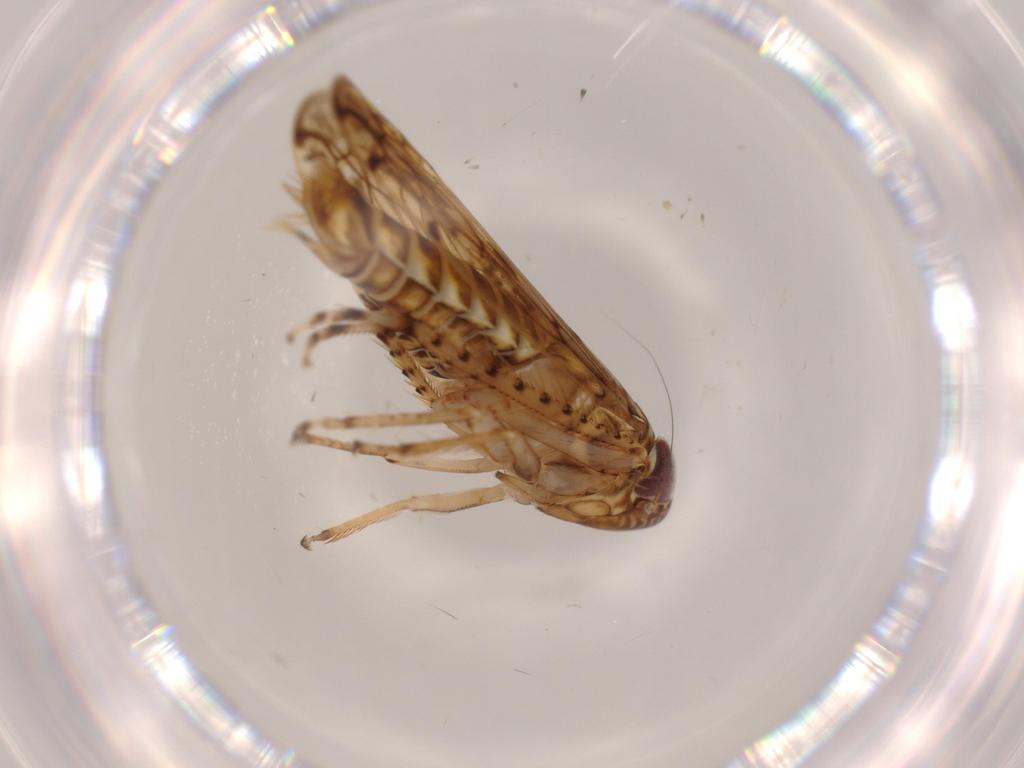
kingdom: Animalia
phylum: Arthropoda
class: Insecta
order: Hemiptera
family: Cicadellidae
